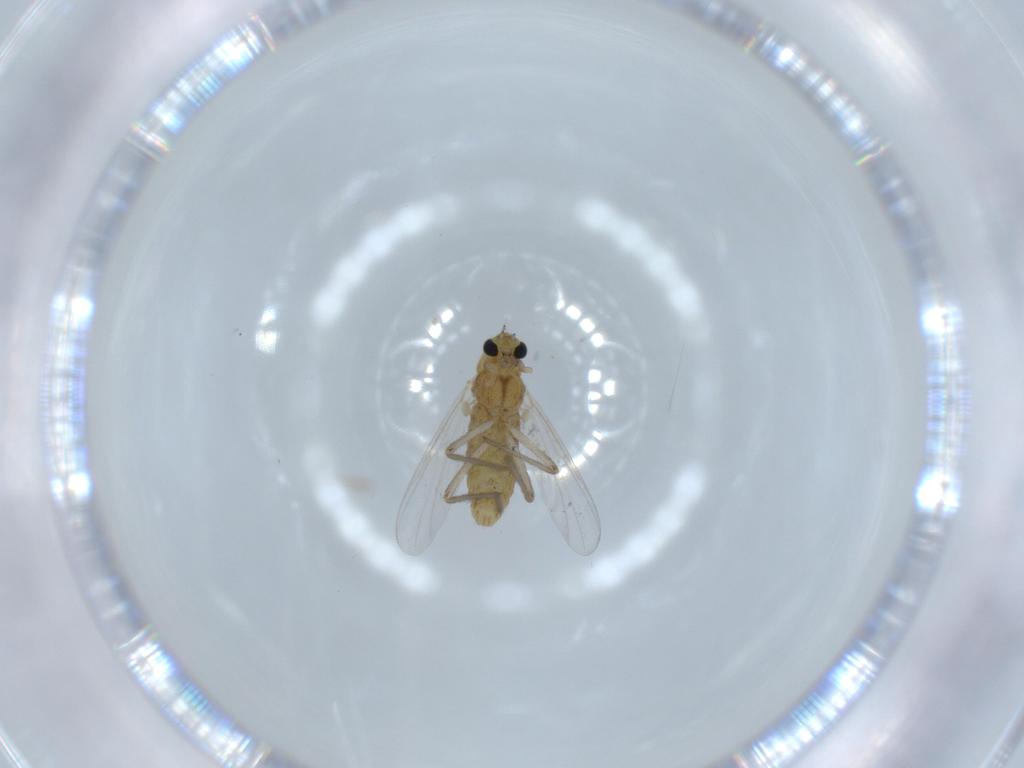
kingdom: Animalia
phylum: Arthropoda
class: Insecta
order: Diptera
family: Chironomidae
